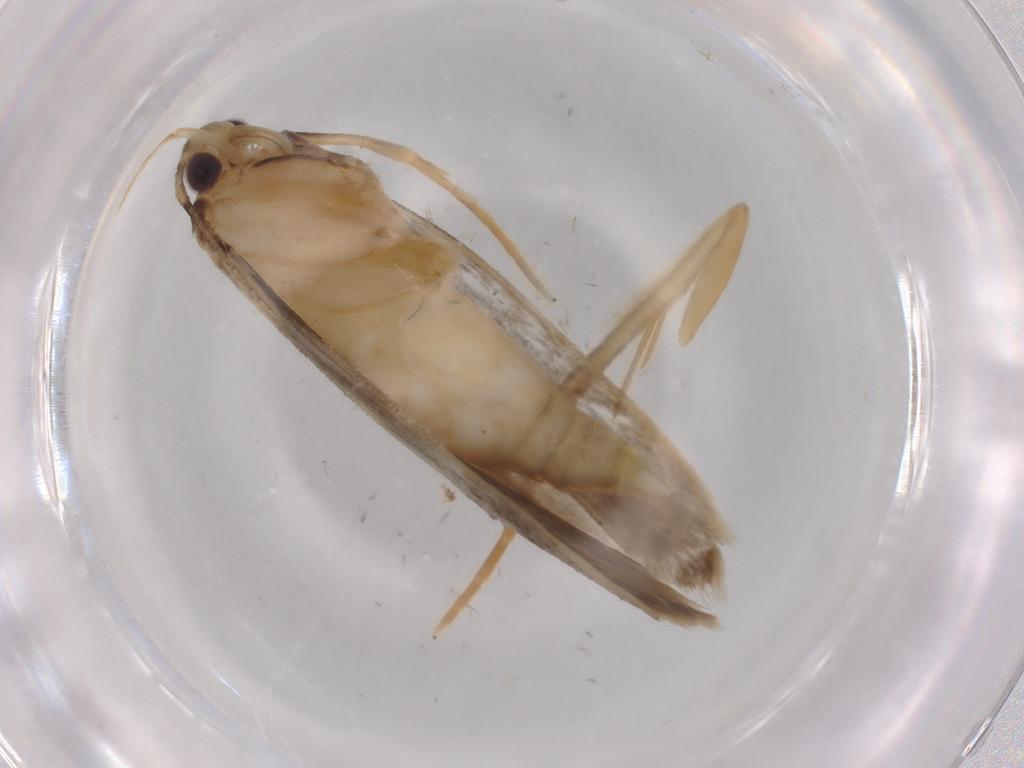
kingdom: Animalia
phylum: Arthropoda
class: Insecta
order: Lepidoptera
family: Autostichidae
